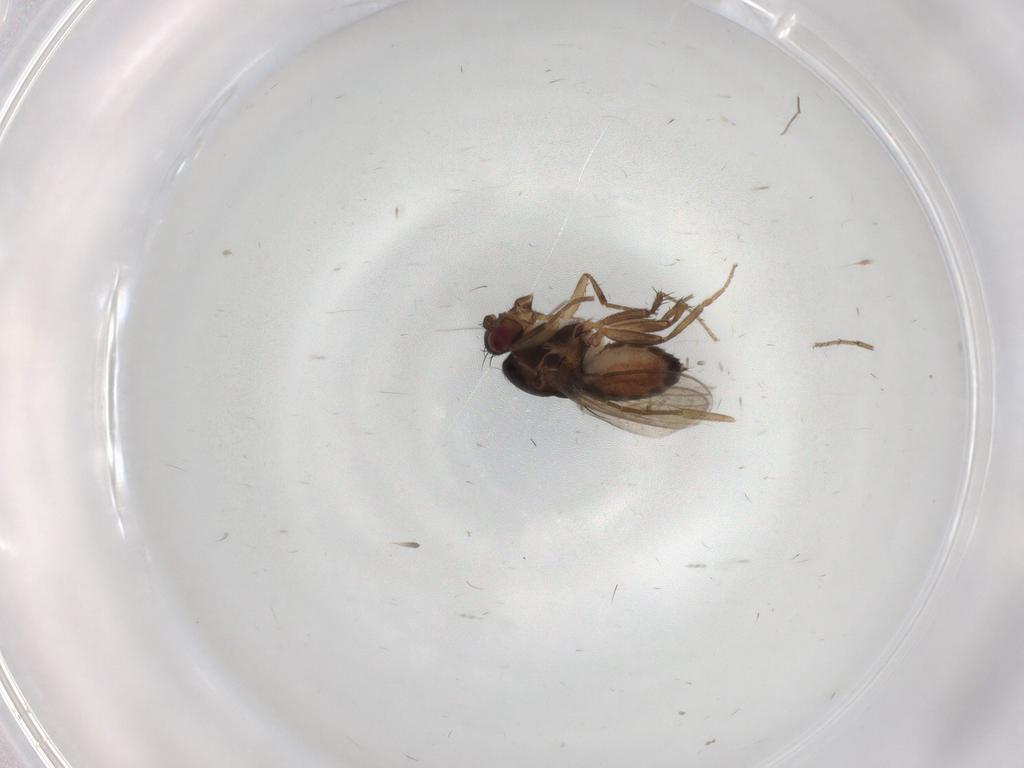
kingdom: Animalia
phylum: Arthropoda
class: Insecta
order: Diptera
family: Sphaeroceridae
